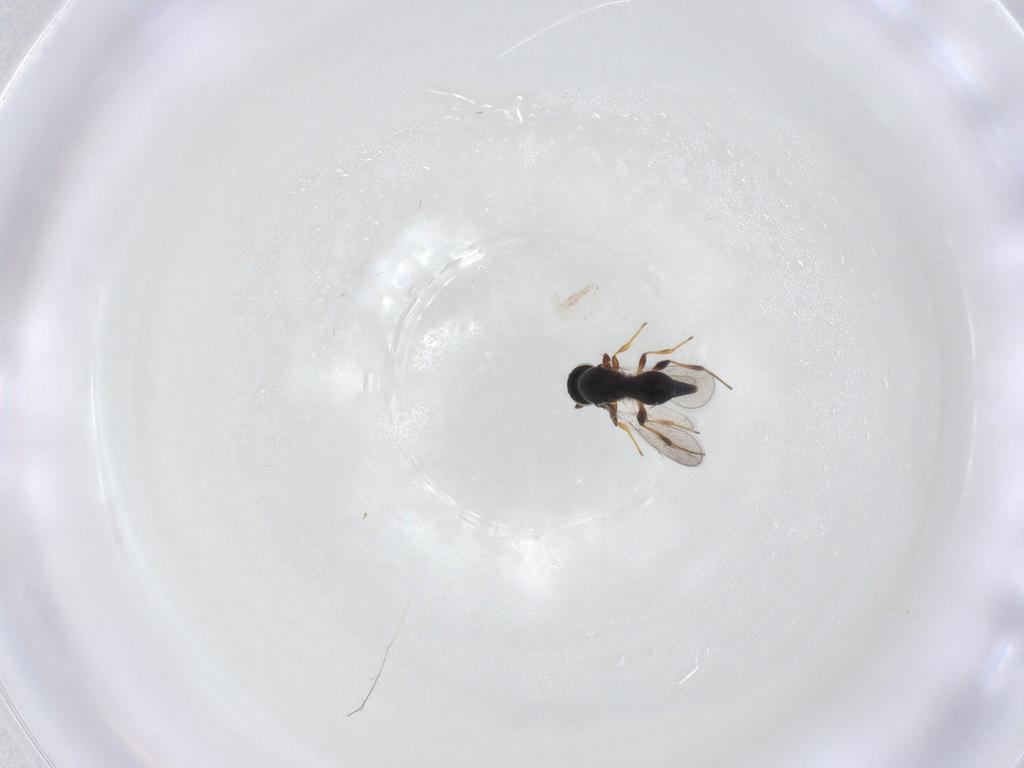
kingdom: Animalia
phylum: Arthropoda
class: Insecta
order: Hymenoptera
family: Platygastridae
